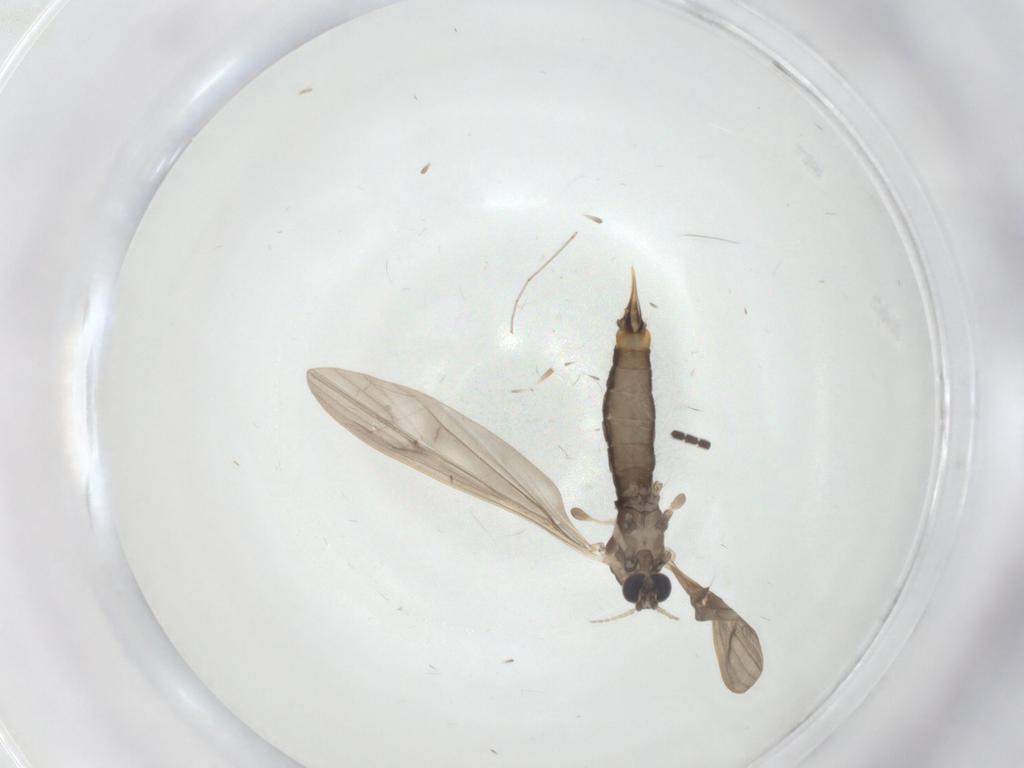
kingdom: Animalia
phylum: Arthropoda
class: Insecta
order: Diptera
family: Limoniidae
